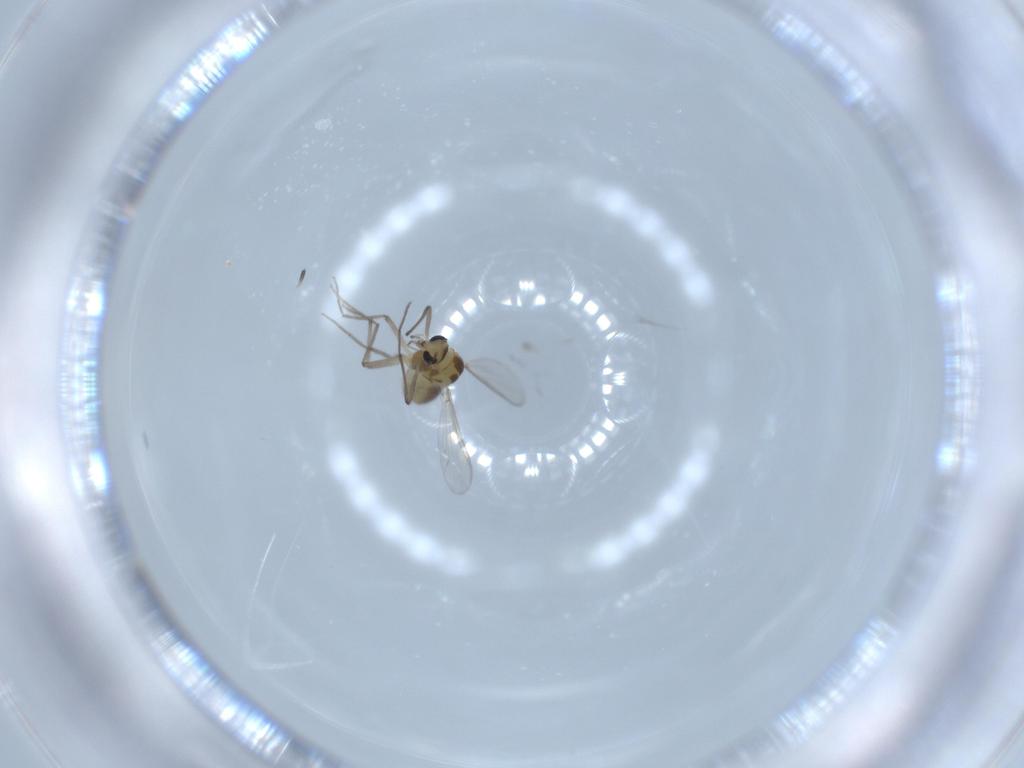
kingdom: Animalia
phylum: Arthropoda
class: Insecta
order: Diptera
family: Chironomidae
